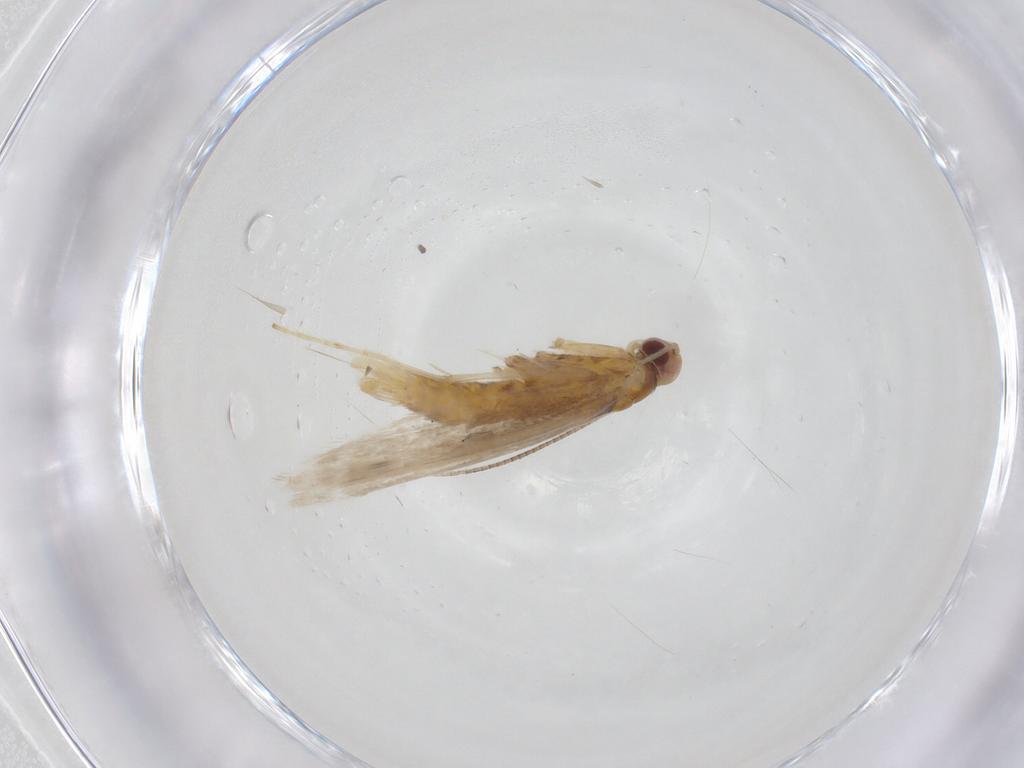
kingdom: Animalia
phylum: Arthropoda
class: Insecta
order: Lepidoptera
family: Gracillariidae
